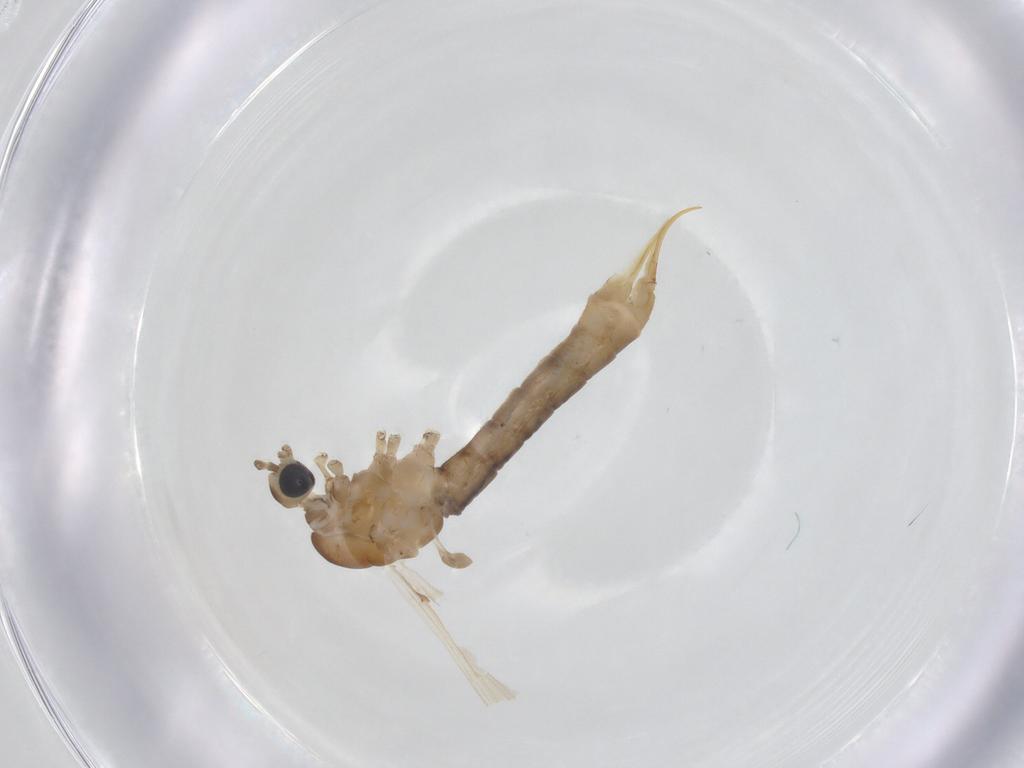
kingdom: Animalia
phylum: Arthropoda
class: Insecta
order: Diptera
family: Limoniidae
